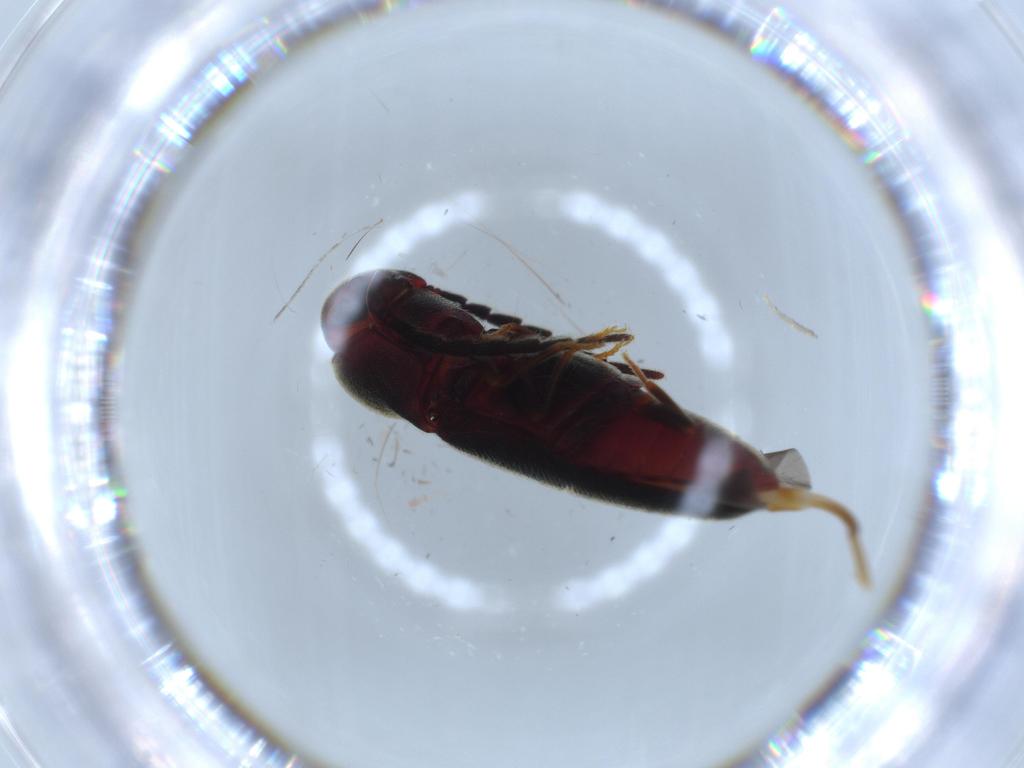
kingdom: Animalia
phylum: Arthropoda
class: Insecta
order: Coleoptera
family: Eucnemidae
